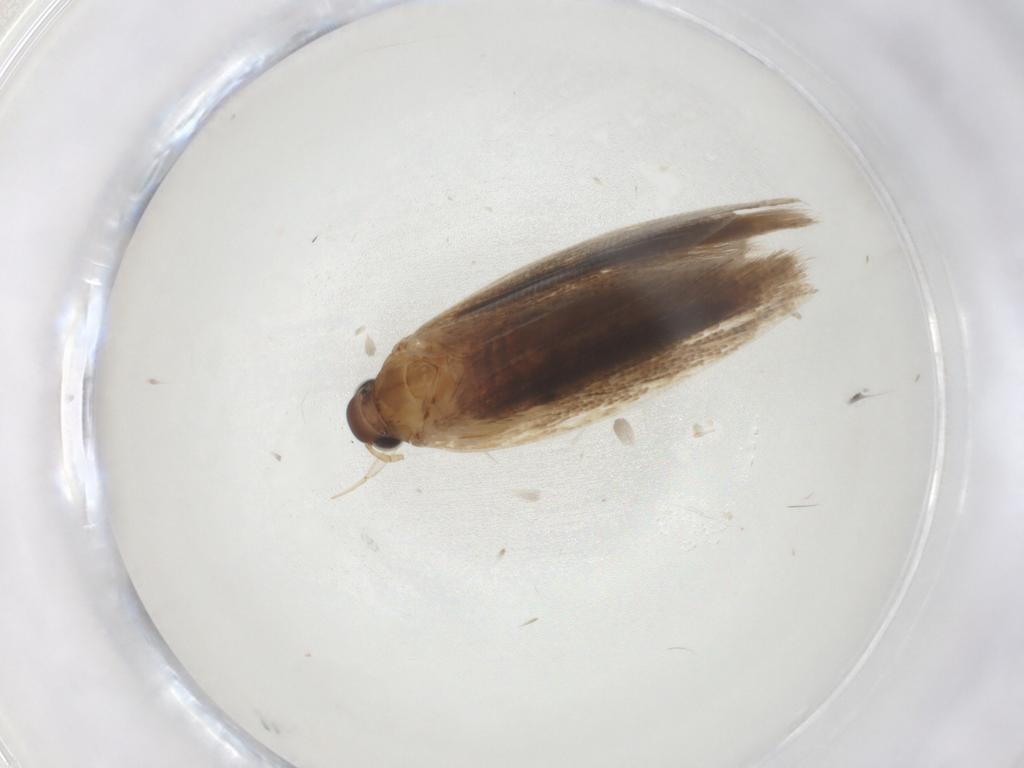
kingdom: Animalia
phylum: Arthropoda
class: Insecta
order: Lepidoptera
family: Gelechiidae
